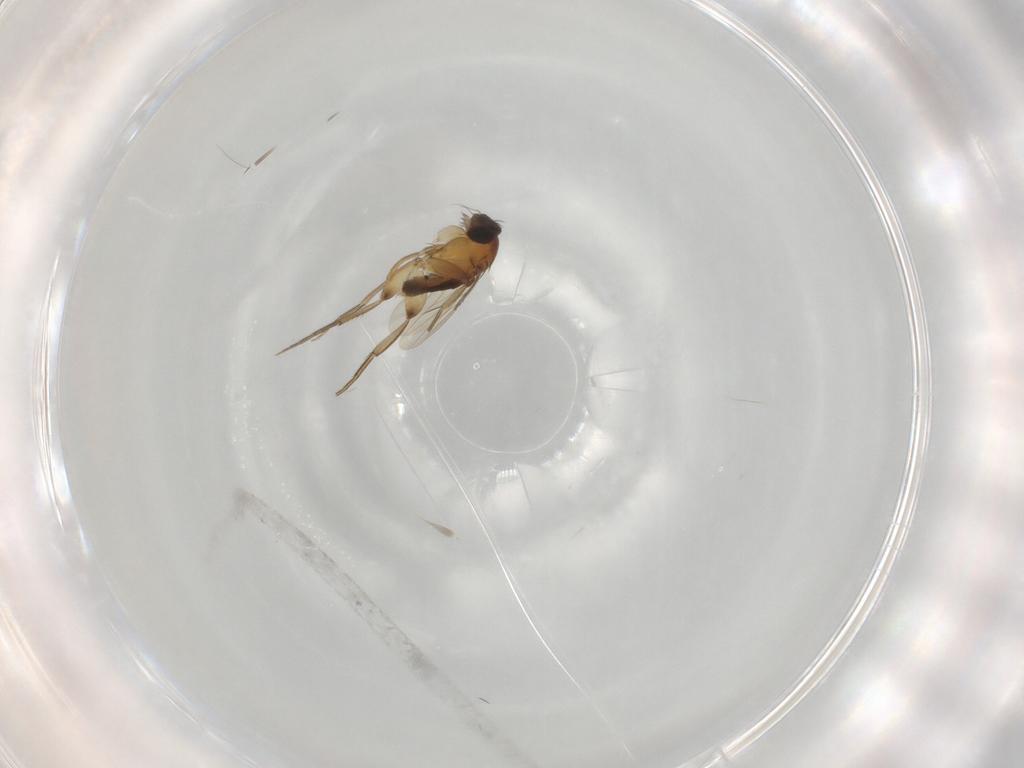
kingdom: Animalia
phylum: Arthropoda
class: Insecta
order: Diptera
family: Phoridae
